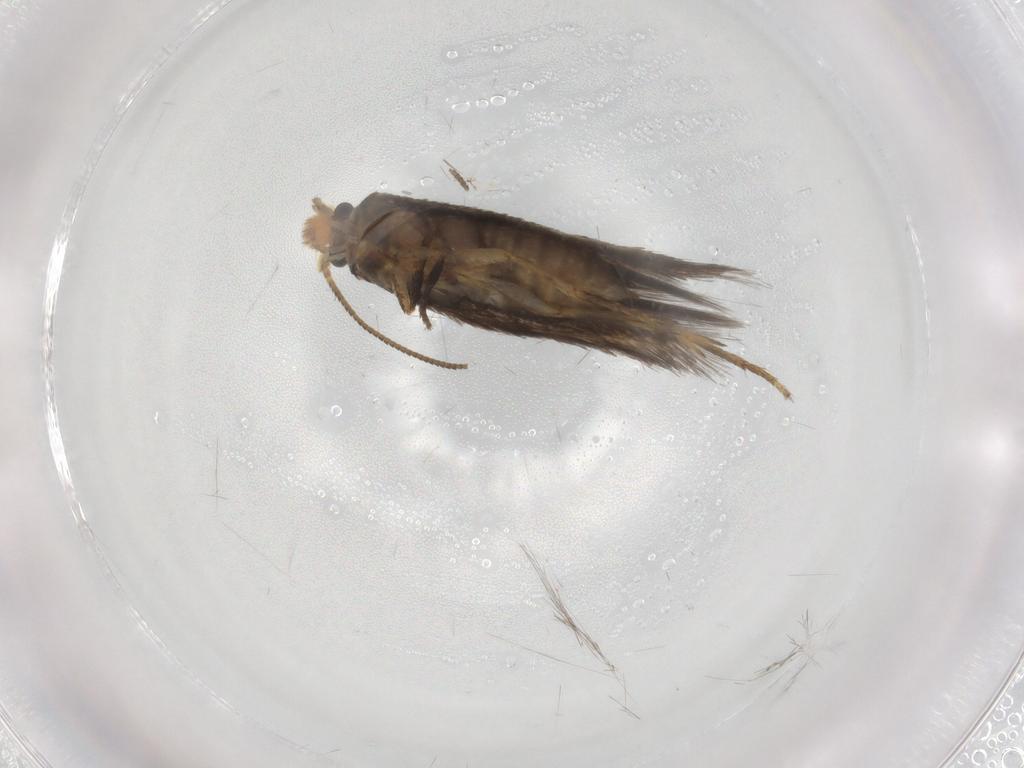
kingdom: Animalia
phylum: Arthropoda
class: Insecta
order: Lepidoptera
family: Nepticulidae
